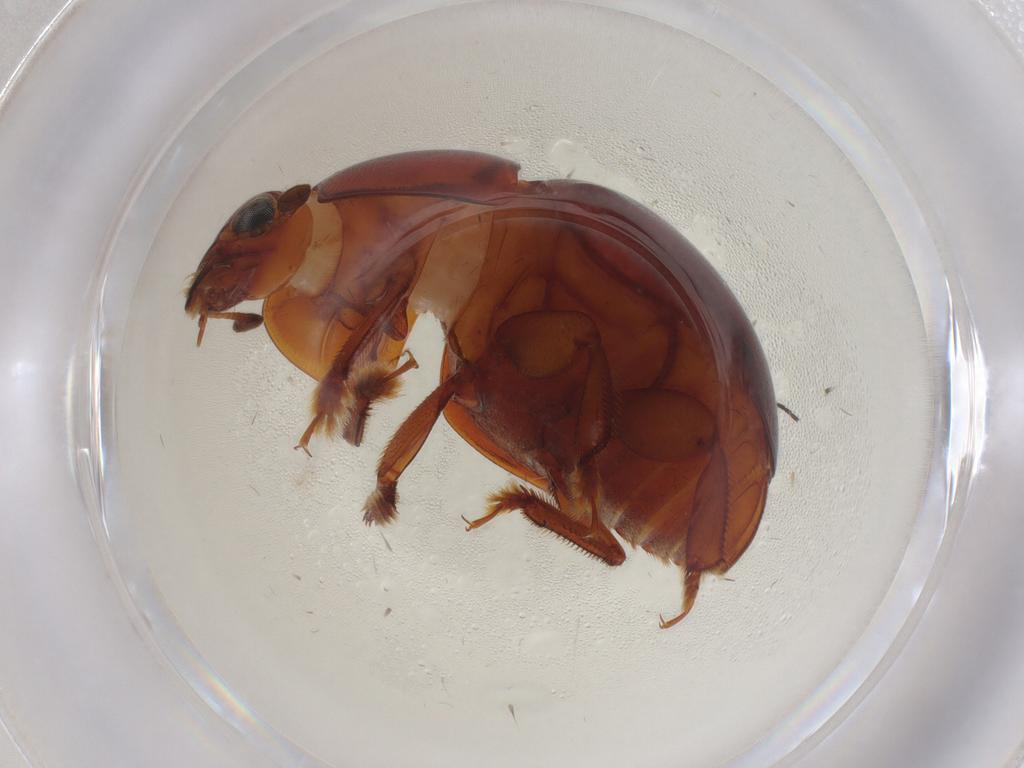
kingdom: Animalia
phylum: Arthropoda
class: Insecta
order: Coleoptera
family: Nitidulidae
